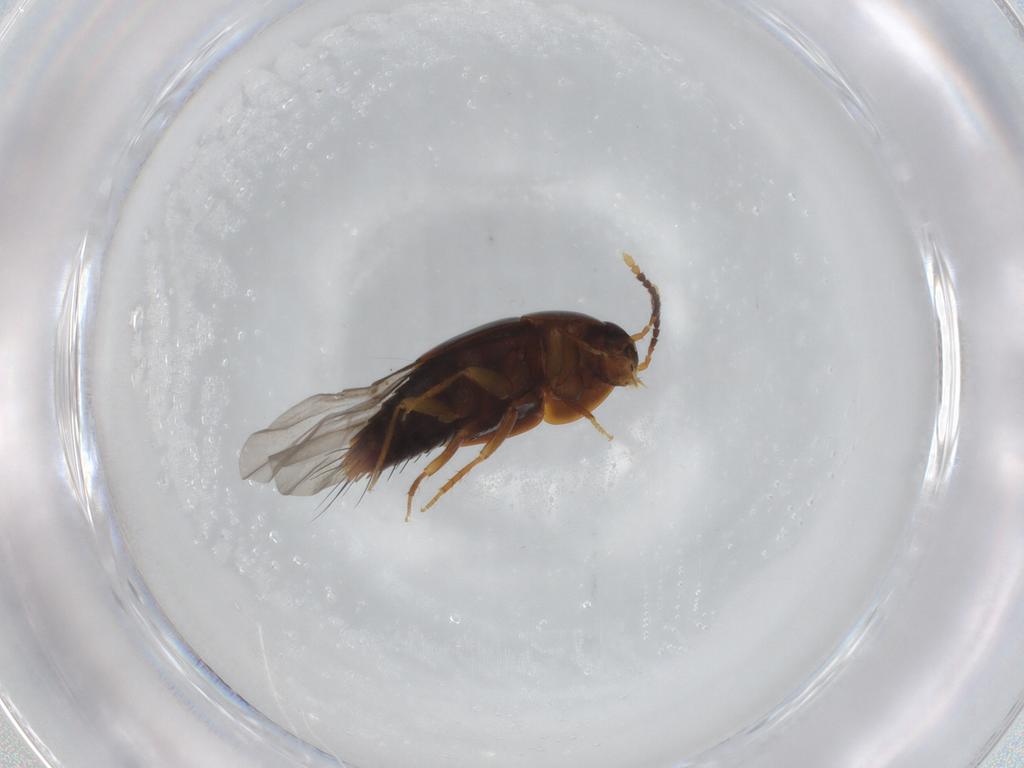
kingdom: Animalia
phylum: Arthropoda
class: Insecta
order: Coleoptera
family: Staphylinidae
